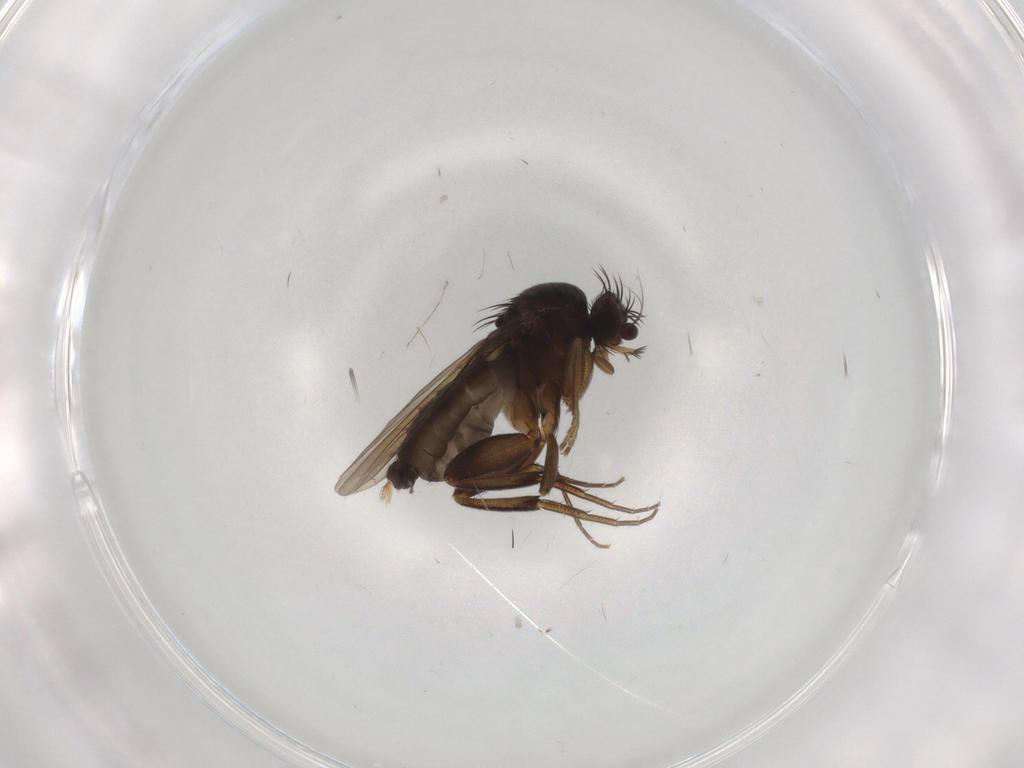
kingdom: Animalia
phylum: Arthropoda
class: Insecta
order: Diptera
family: Phoridae
